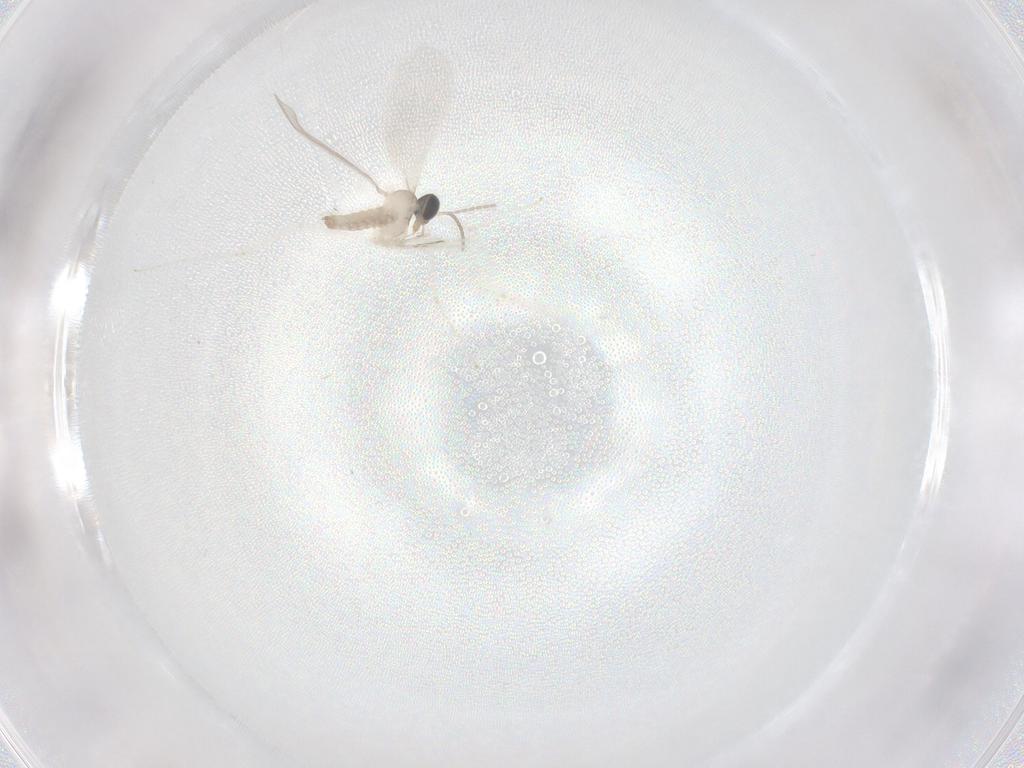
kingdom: Animalia
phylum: Arthropoda
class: Insecta
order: Diptera
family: Cecidomyiidae
